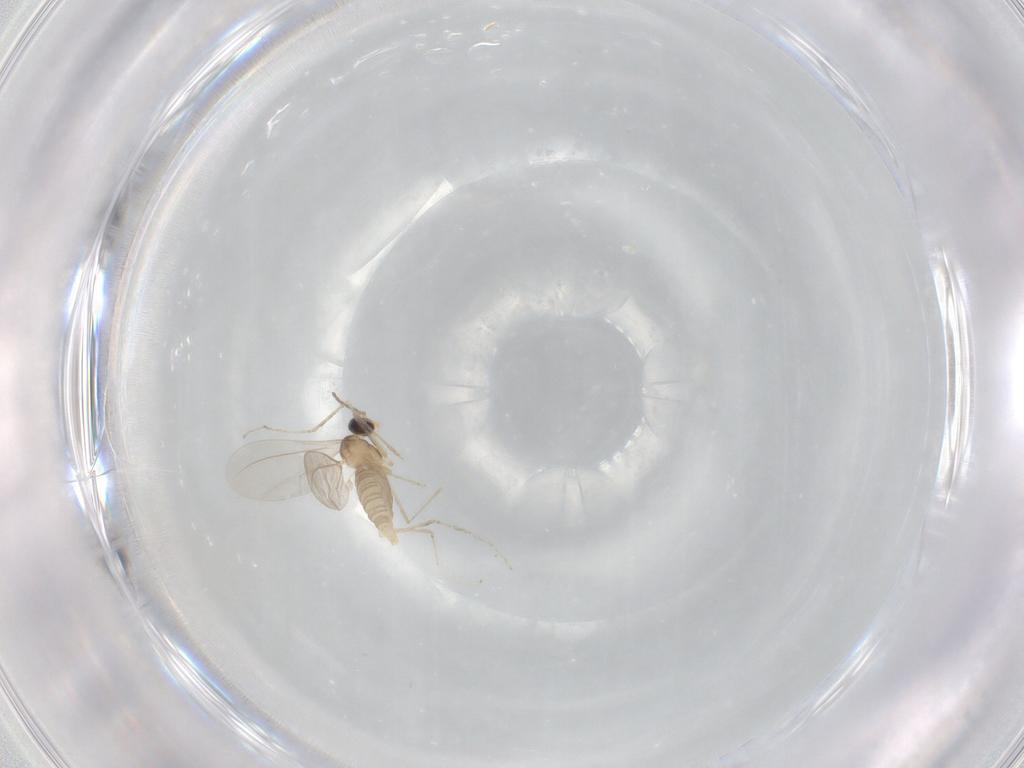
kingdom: Animalia
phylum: Arthropoda
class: Insecta
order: Diptera
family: Cecidomyiidae
